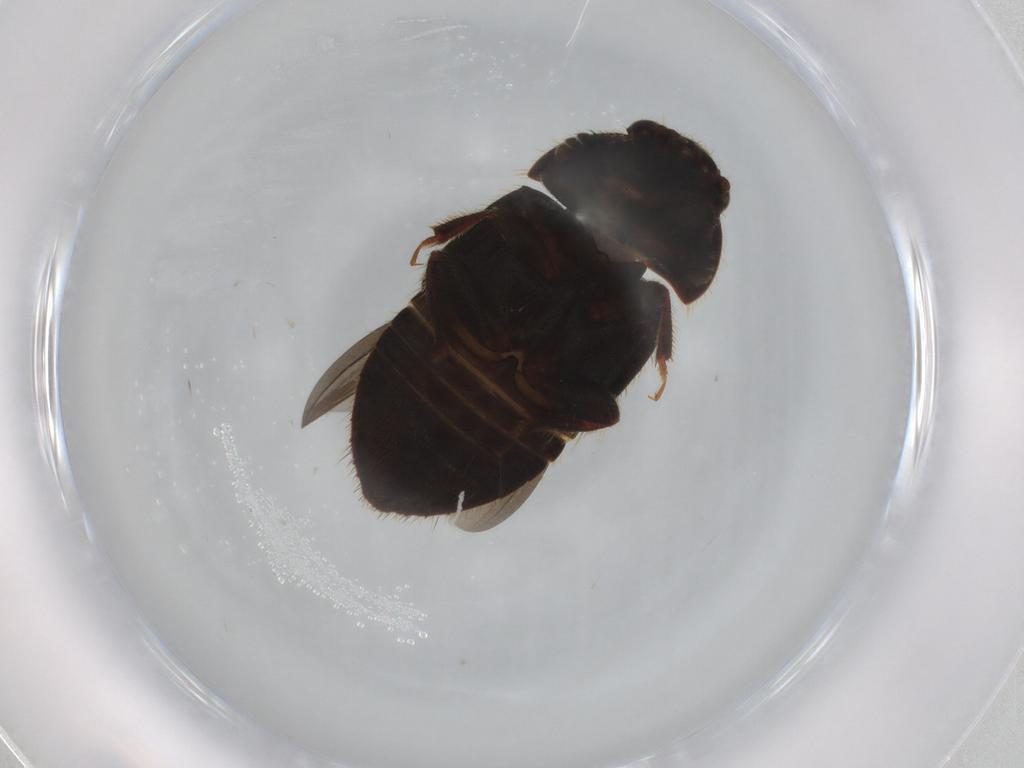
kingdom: Animalia
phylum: Arthropoda
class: Insecta
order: Coleoptera
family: Nitidulidae
